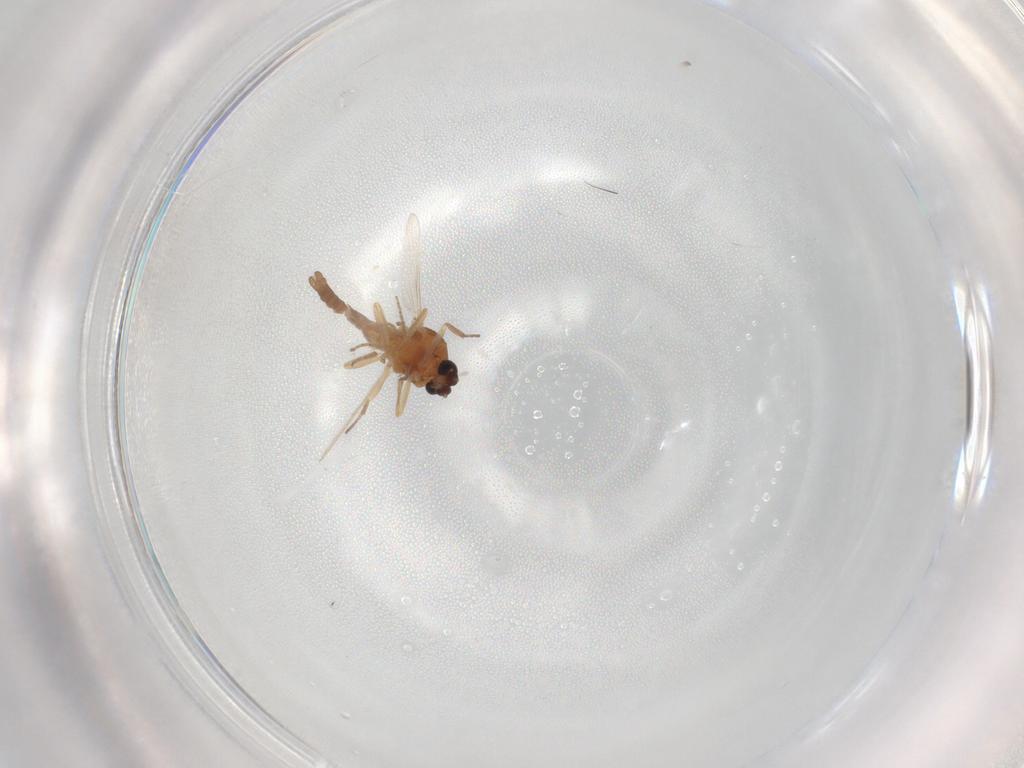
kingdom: Animalia
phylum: Arthropoda
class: Insecta
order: Diptera
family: Ceratopogonidae
